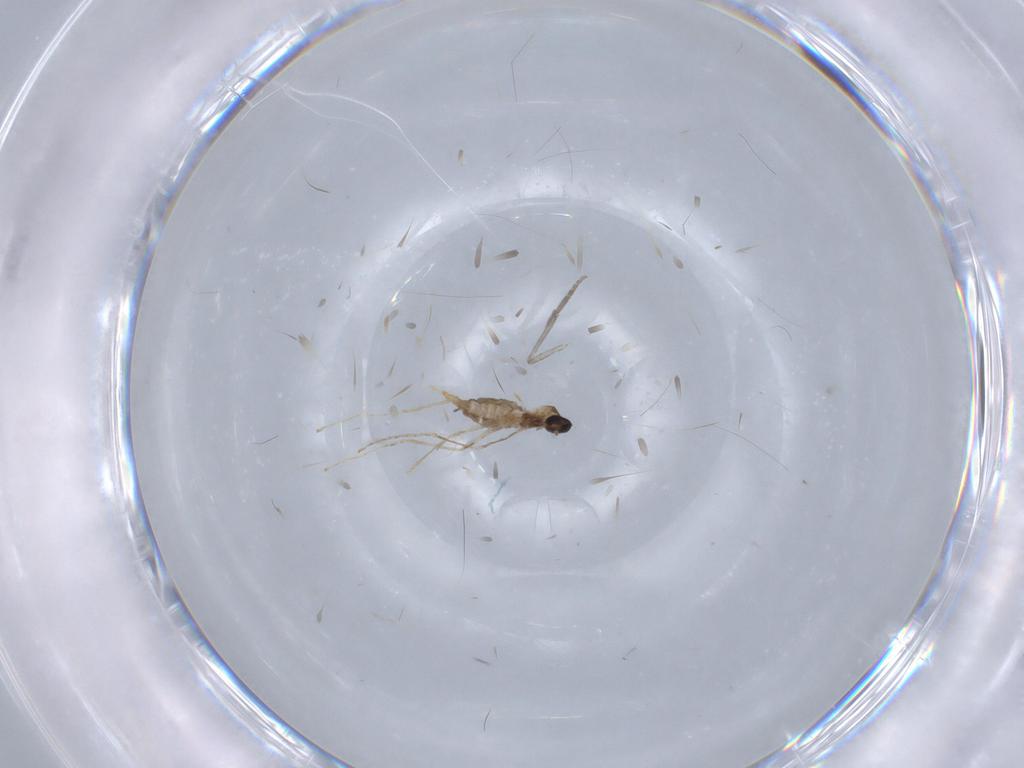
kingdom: Animalia
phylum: Arthropoda
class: Insecta
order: Diptera
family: Cecidomyiidae
